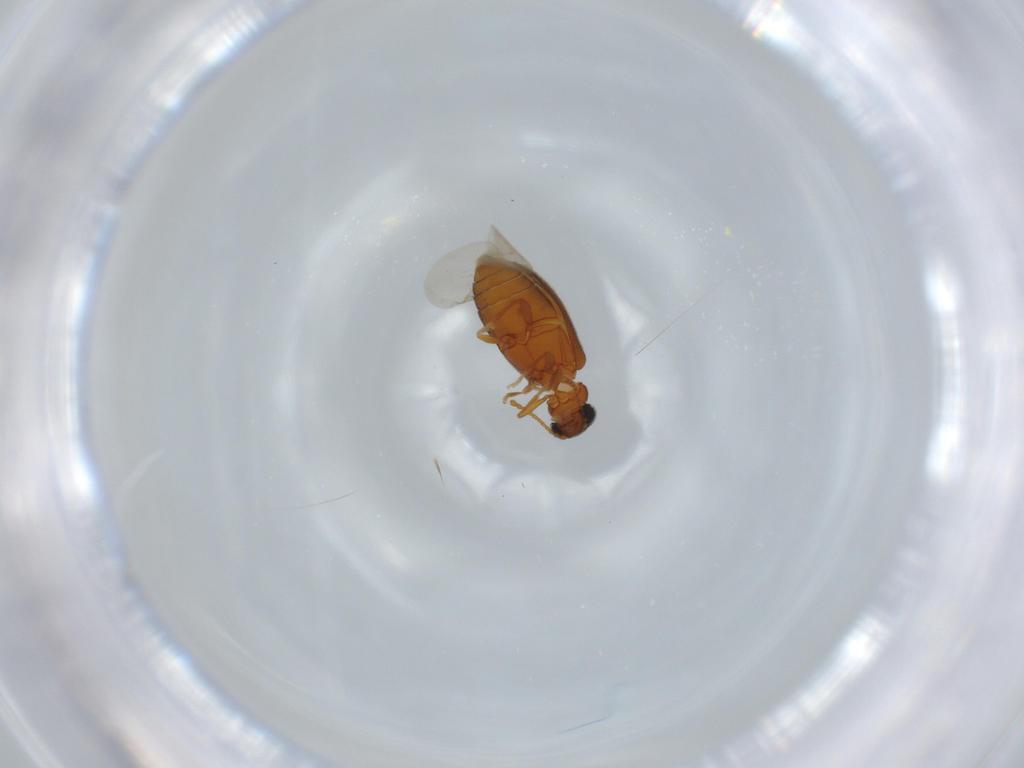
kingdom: Animalia
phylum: Arthropoda
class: Insecta
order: Coleoptera
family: Aderidae
